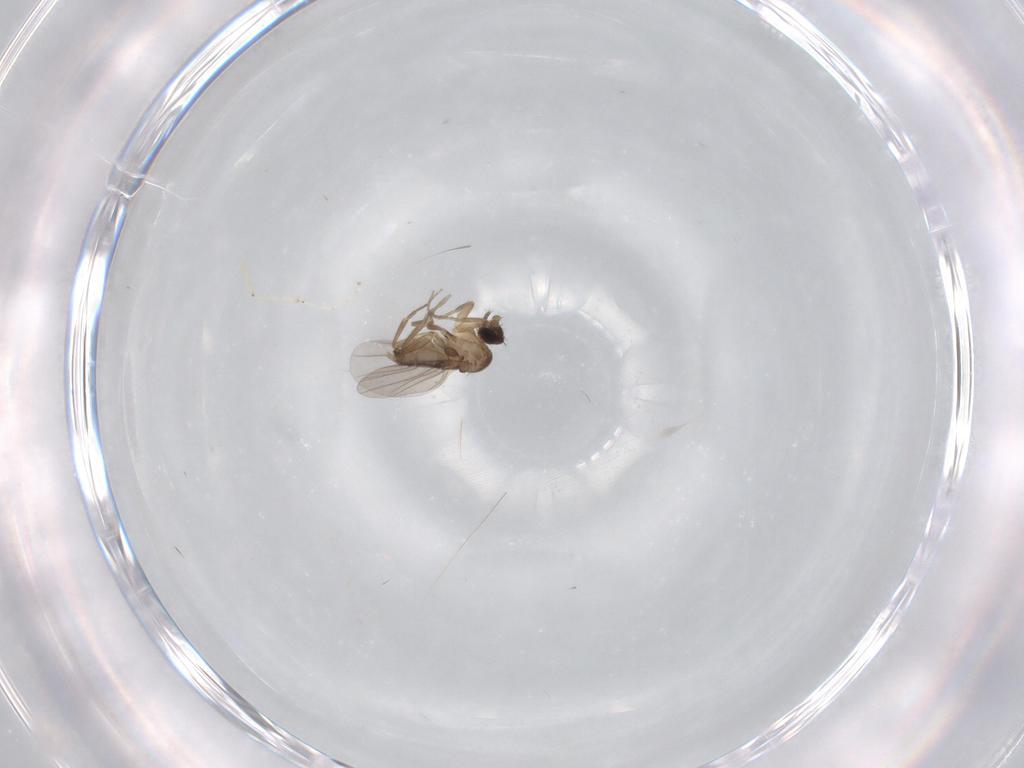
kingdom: Animalia
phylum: Arthropoda
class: Insecta
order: Diptera
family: Phoridae
